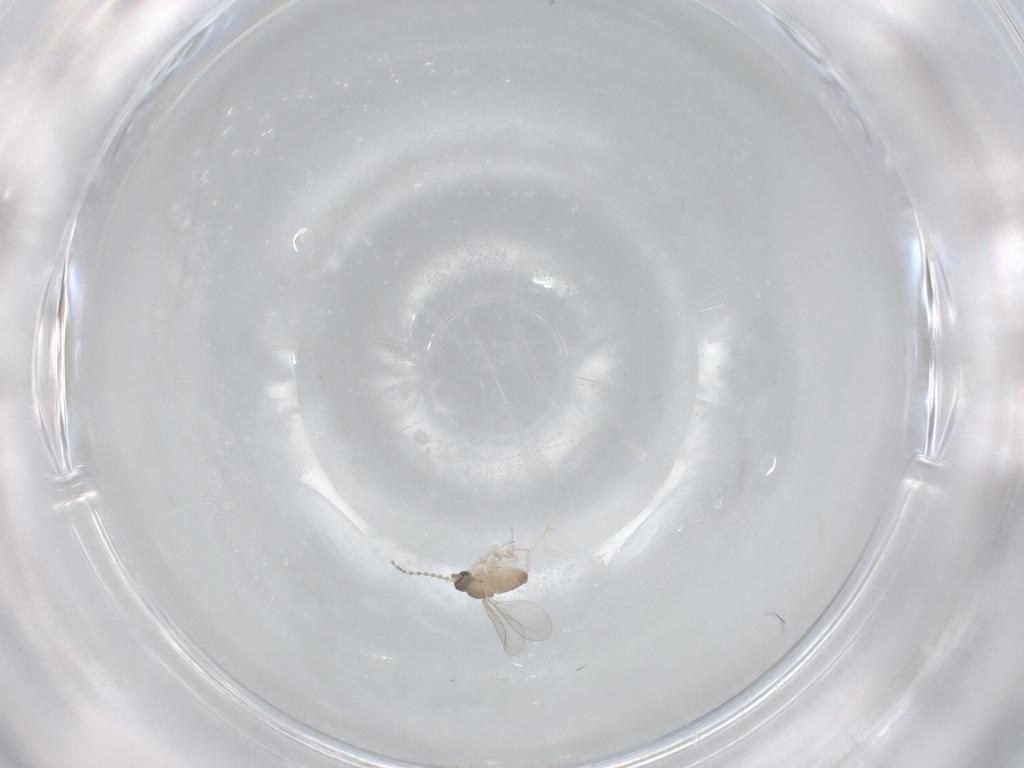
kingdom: Animalia
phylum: Arthropoda
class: Insecta
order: Diptera
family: Cecidomyiidae
